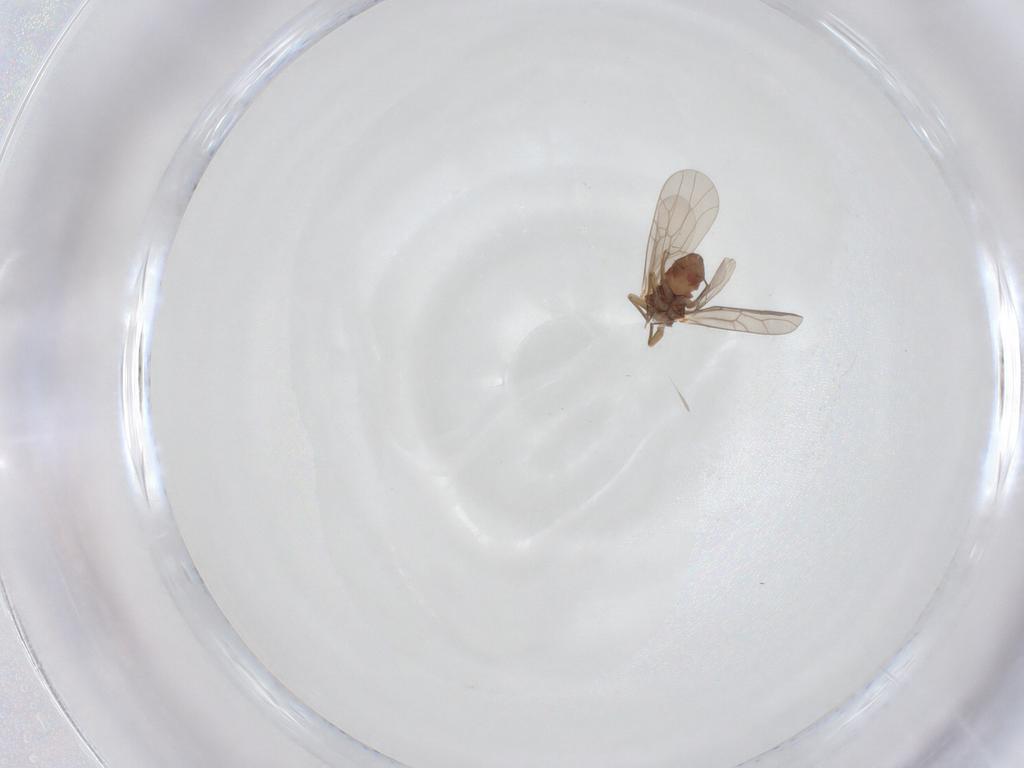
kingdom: Animalia
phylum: Arthropoda
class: Insecta
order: Psocodea
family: Lepidopsocidae
